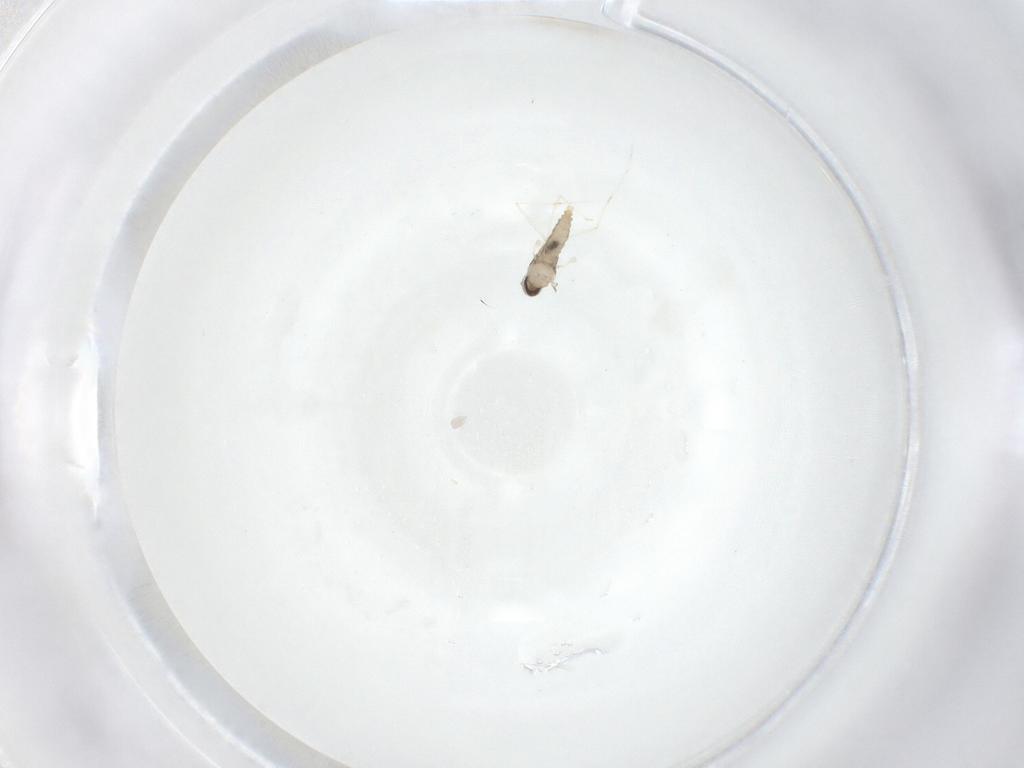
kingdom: Animalia
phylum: Arthropoda
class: Insecta
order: Diptera
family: Cecidomyiidae
